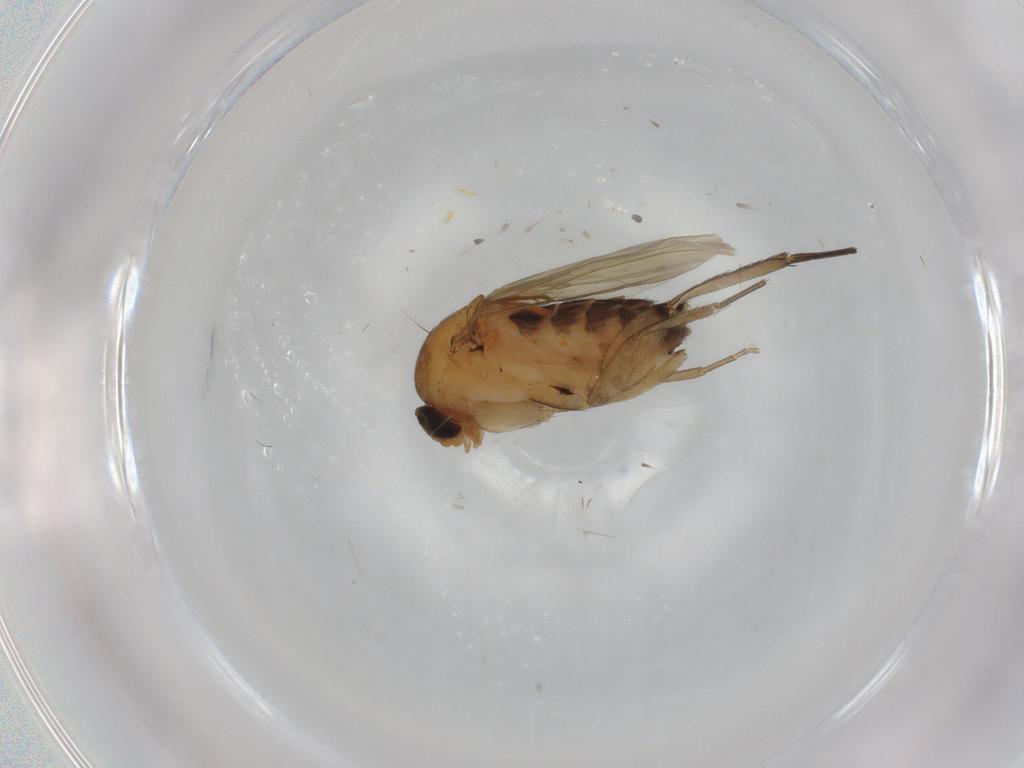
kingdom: Animalia
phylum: Arthropoda
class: Insecta
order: Diptera
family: Phoridae
